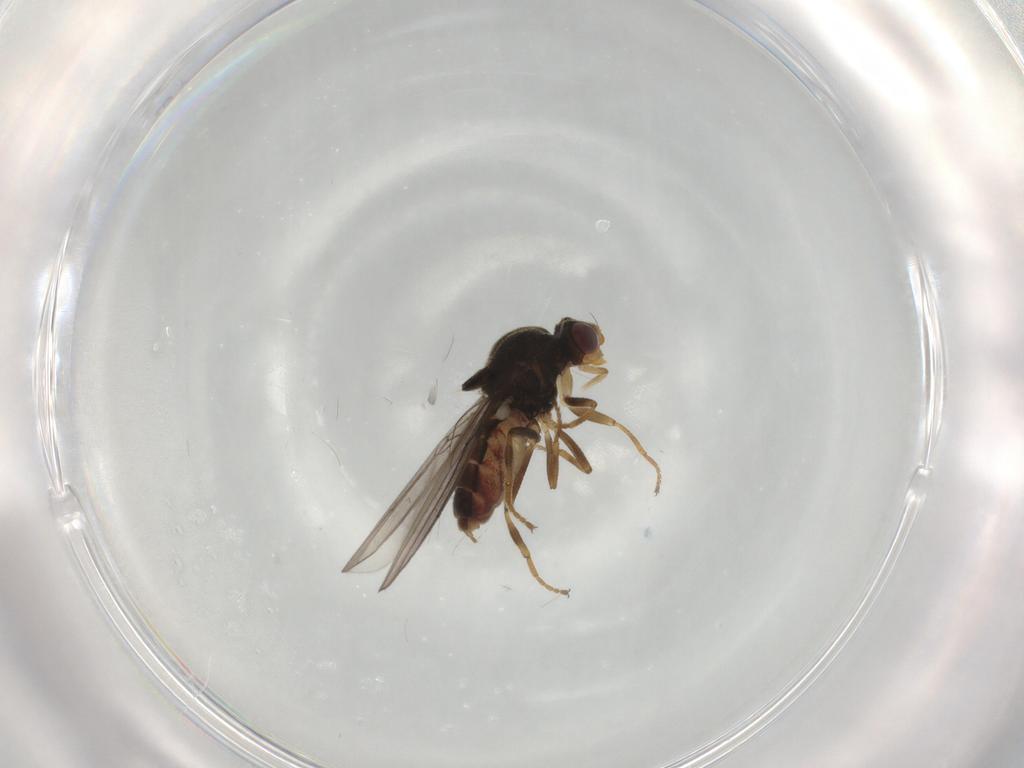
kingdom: Animalia
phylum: Arthropoda
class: Insecta
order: Diptera
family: Chloropidae
